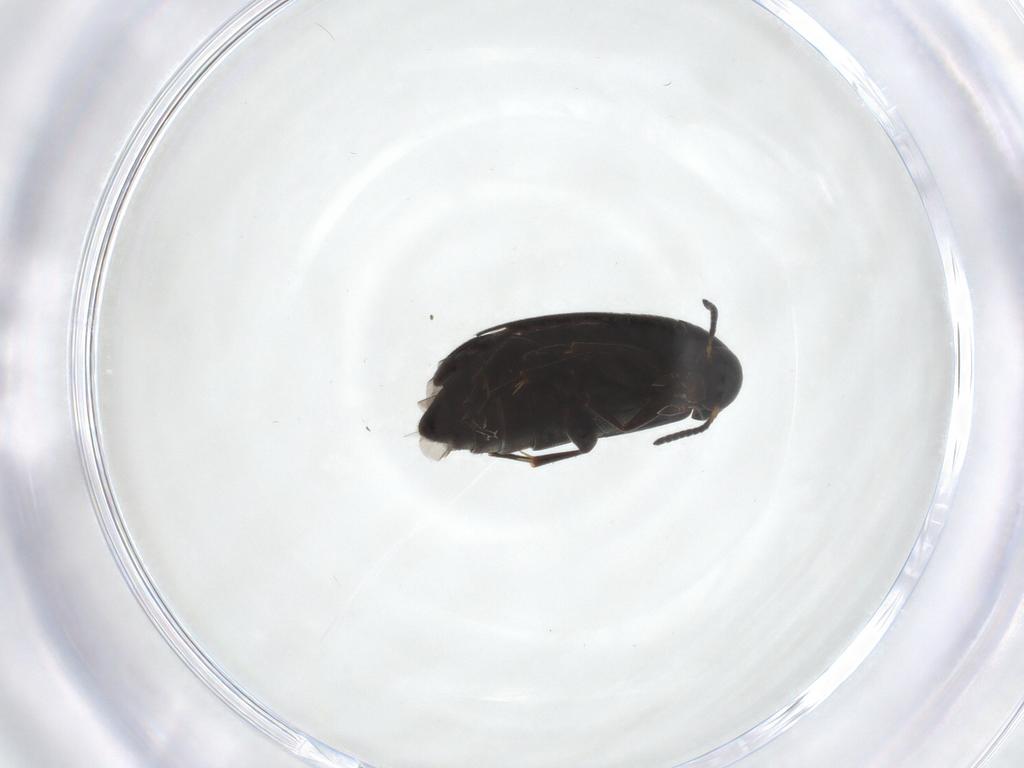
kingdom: Animalia
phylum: Arthropoda
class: Insecta
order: Coleoptera
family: Scraptiidae
